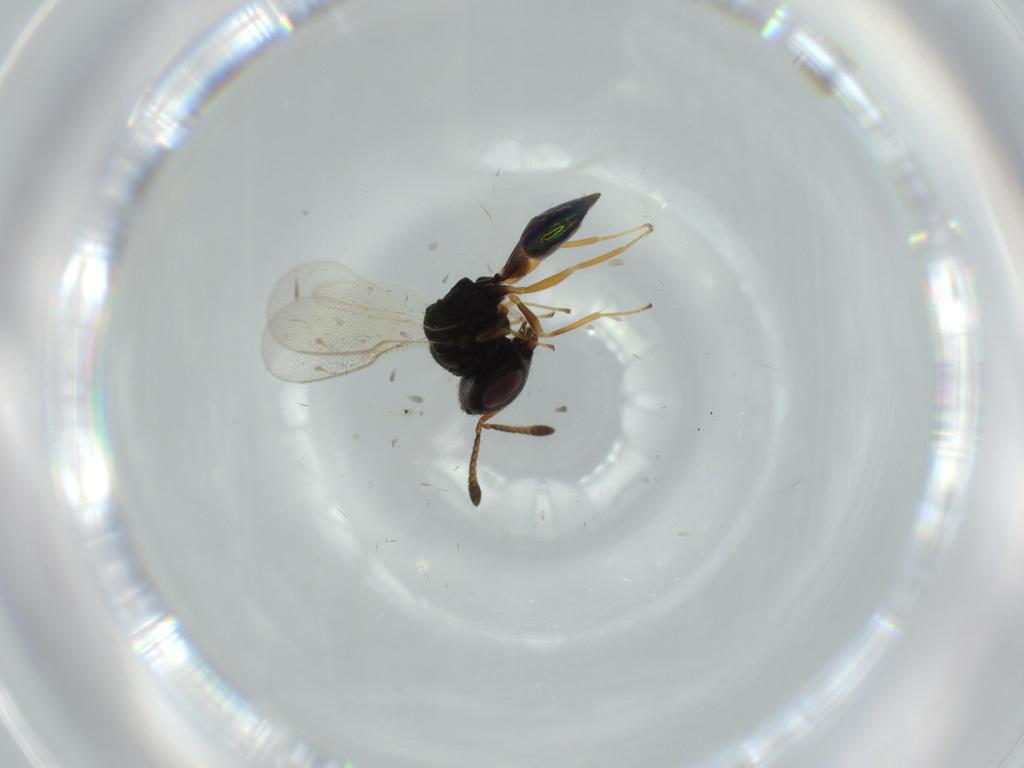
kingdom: Animalia
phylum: Arthropoda
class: Insecta
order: Hymenoptera
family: Pteromalidae
